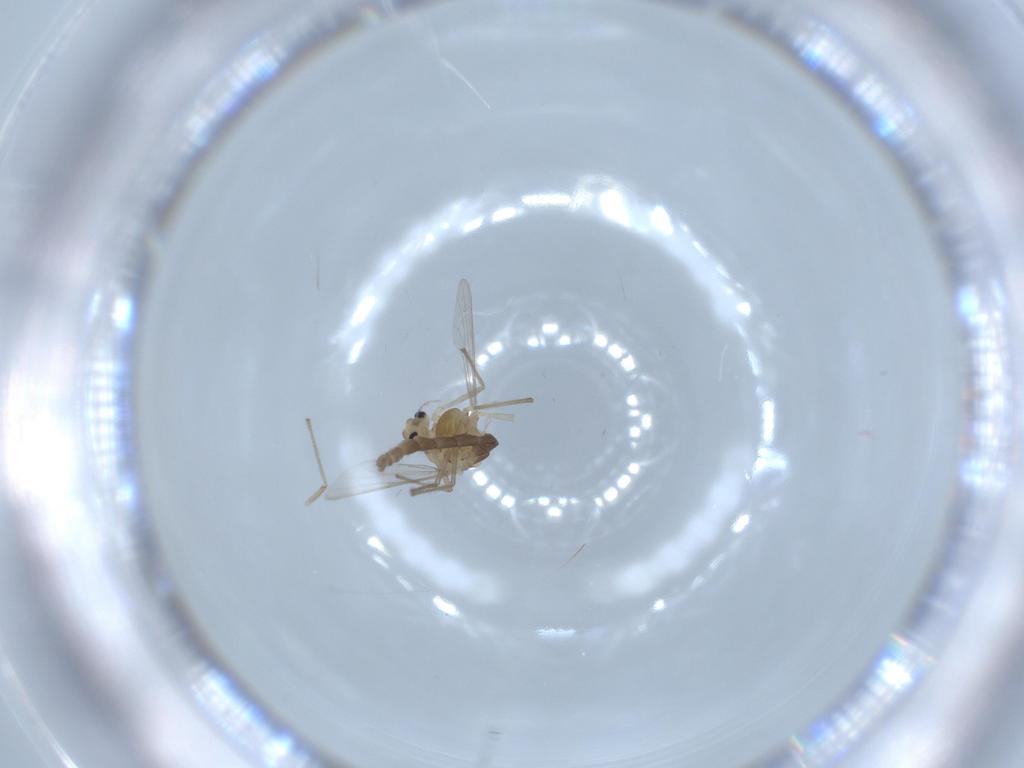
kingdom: Animalia
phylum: Arthropoda
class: Insecta
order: Diptera
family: Chironomidae
